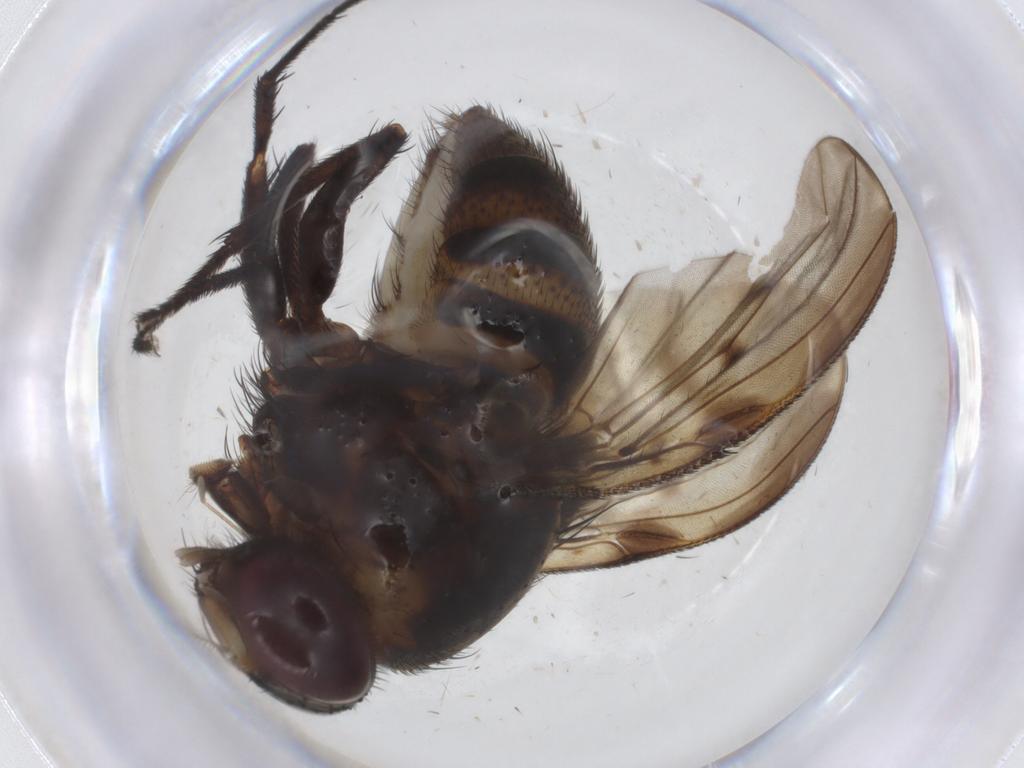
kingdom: Animalia
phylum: Arthropoda
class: Insecta
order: Diptera
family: Muscidae
